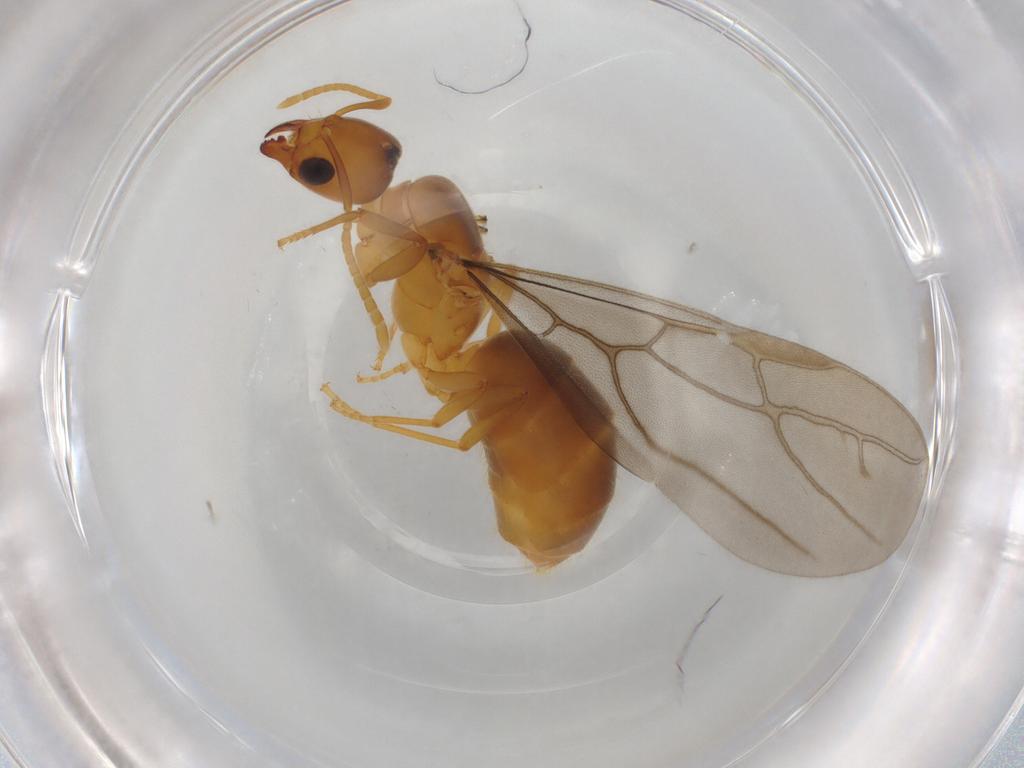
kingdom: Animalia
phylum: Arthropoda
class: Insecta
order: Hymenoptera
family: Formicidae
